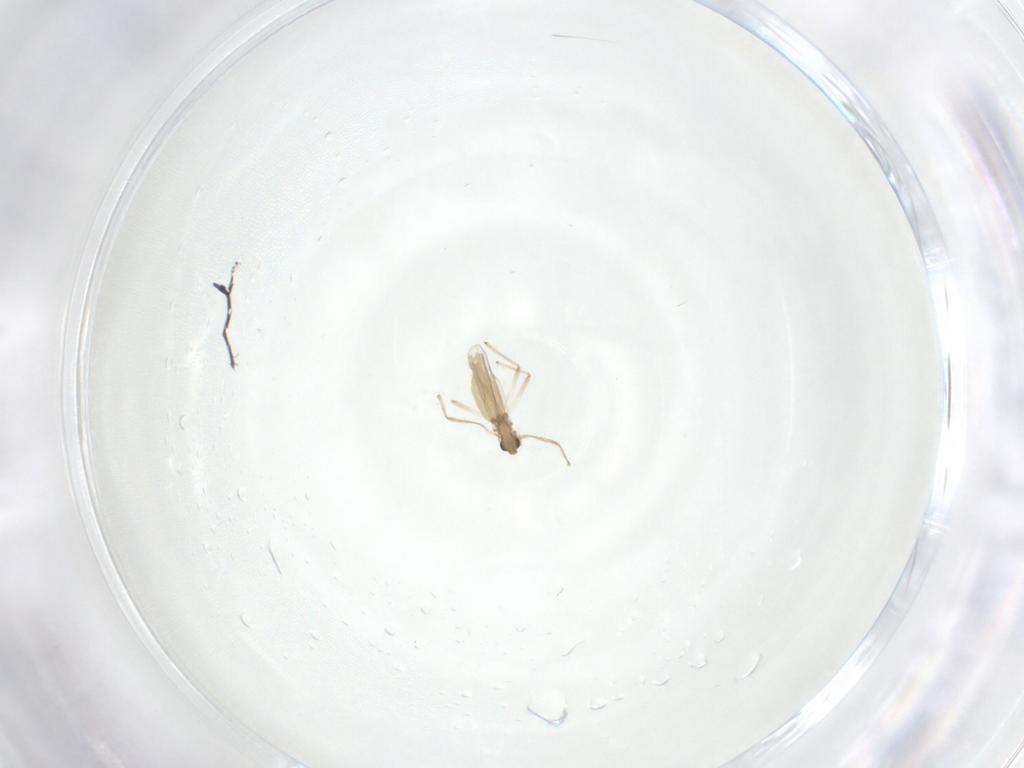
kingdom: Animalia
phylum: Arthropoda
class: Insecta
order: Diptera
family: Chironomidae
